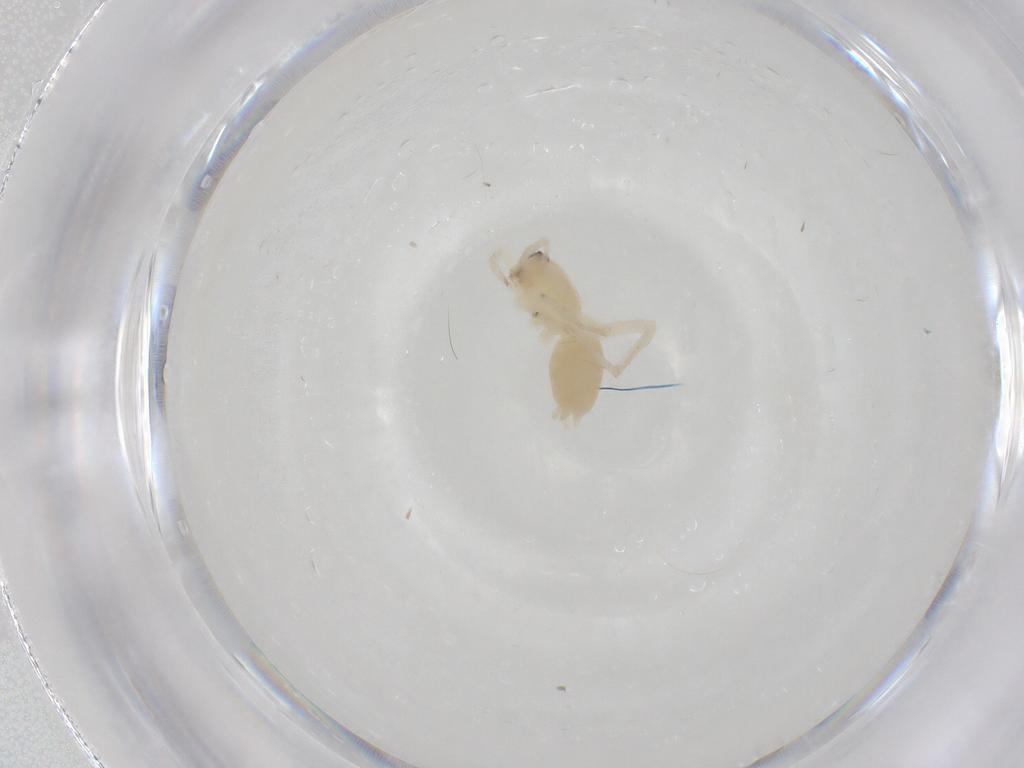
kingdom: Animalia
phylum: Arthropoda
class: Arachnida
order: Araneae
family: Anyphaenidae
